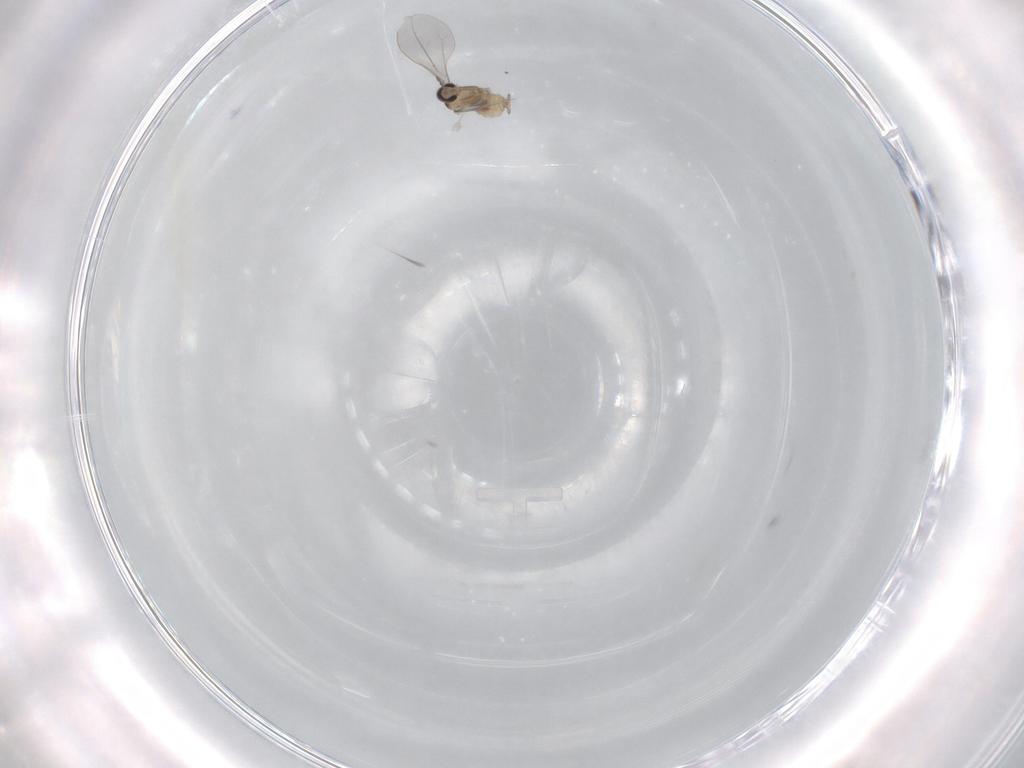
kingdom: Animalia
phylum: Arthropoda
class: Insecta
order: Diptera
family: Cecidomyiidae
